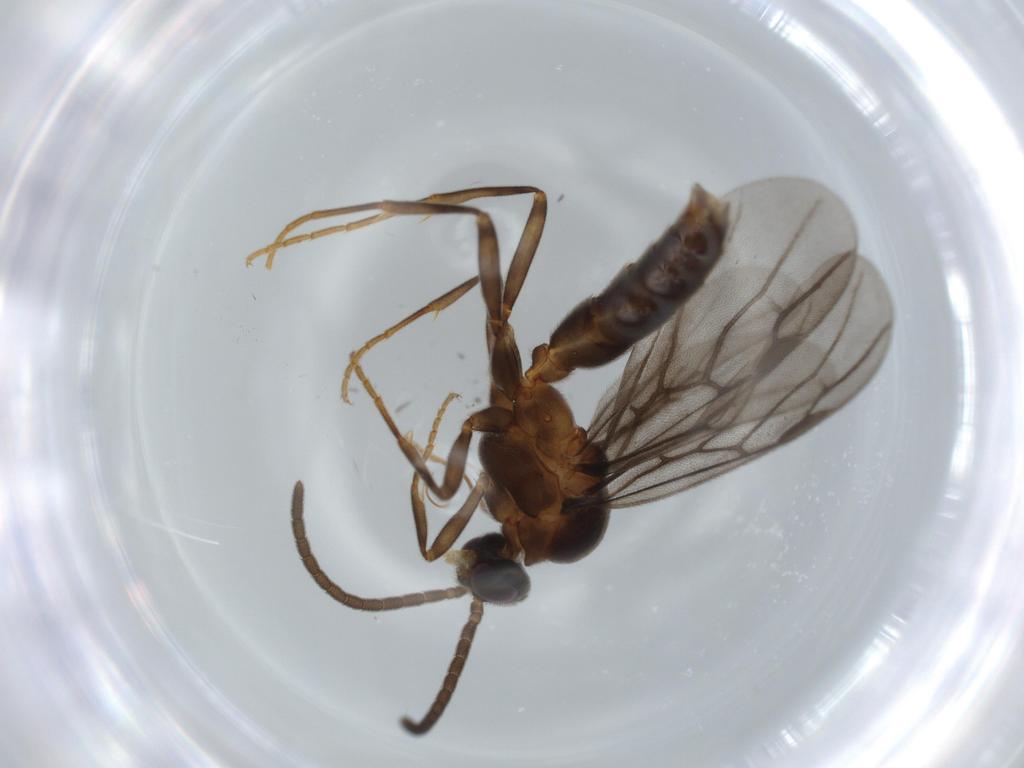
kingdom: Animalia
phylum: Arthropoda
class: Insecta
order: Hymenoptera
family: Formicidae
